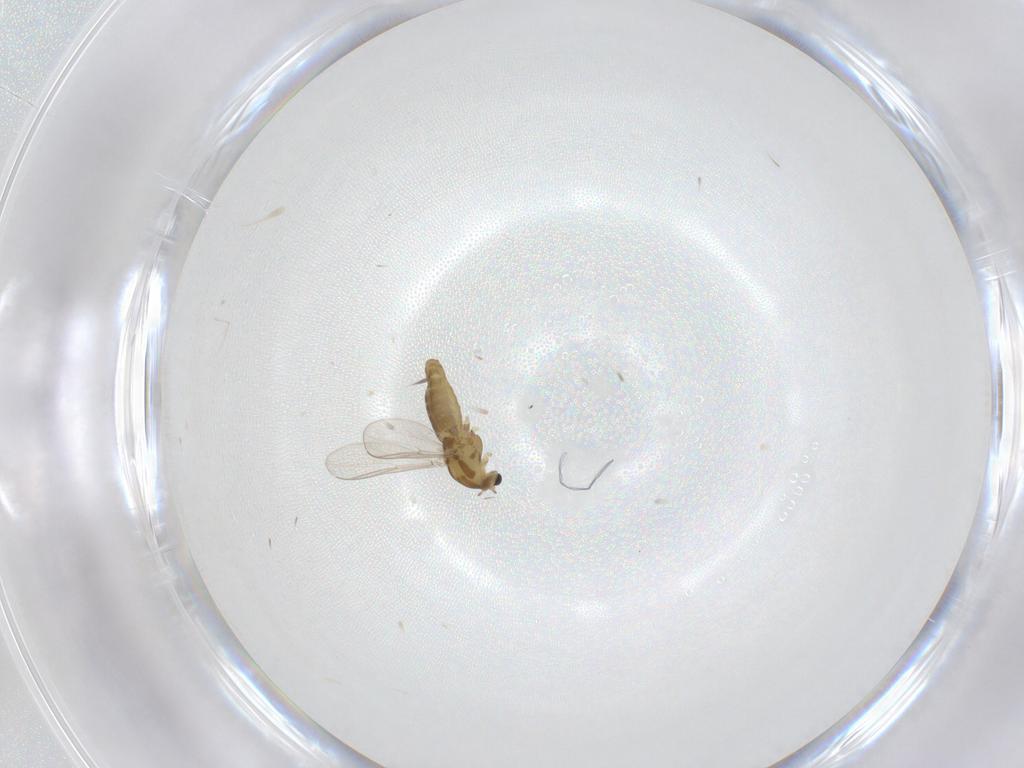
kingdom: Animalia
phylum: Arthropoda
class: Insecta
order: Diptera
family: Chironomidae
